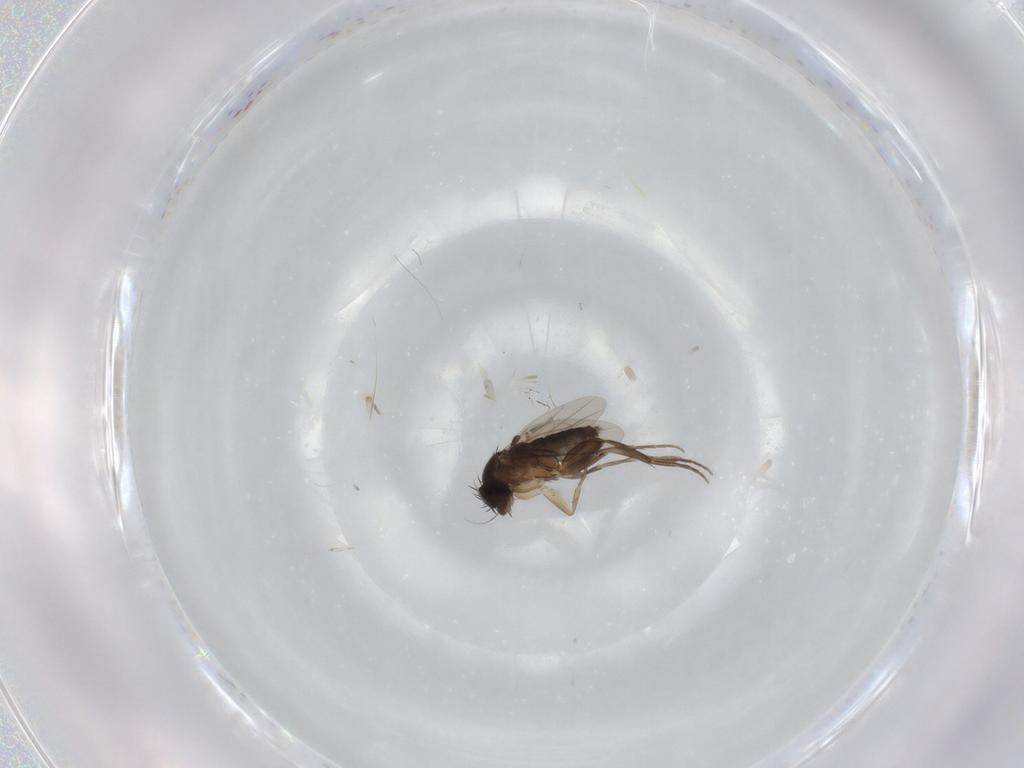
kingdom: Animalia
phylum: Arthropoda
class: Insecta
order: Diptera
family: Phoridae
